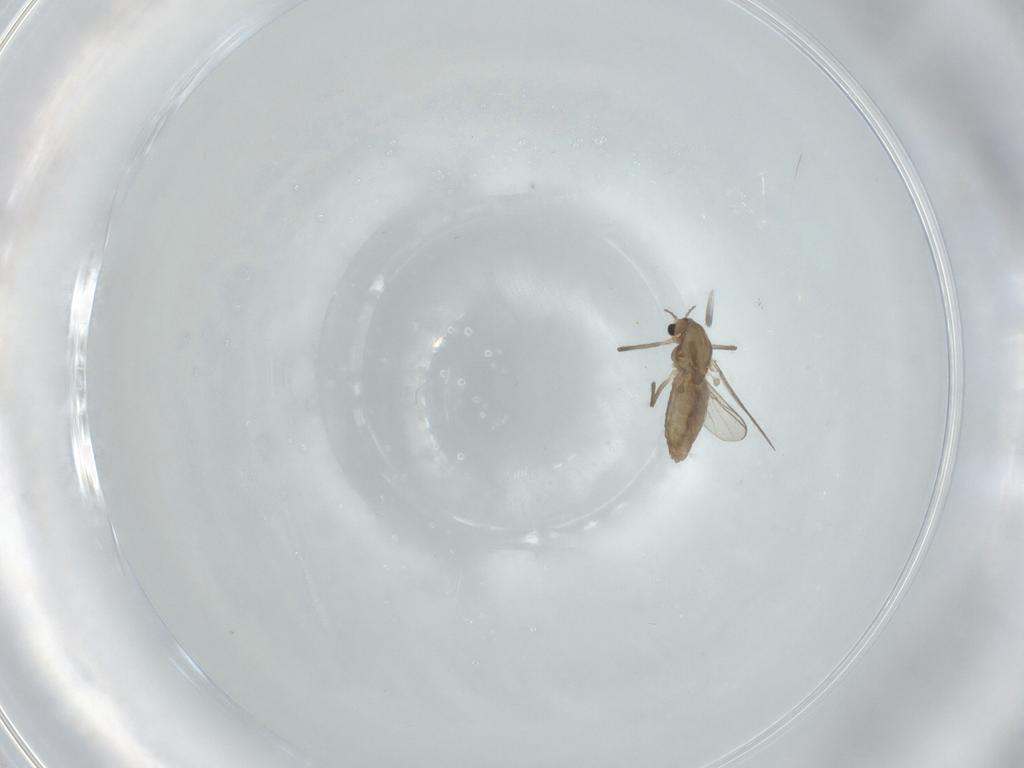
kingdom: Animalia
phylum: Arthropoda
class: Insecta
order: Diptera
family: Chironomidae
